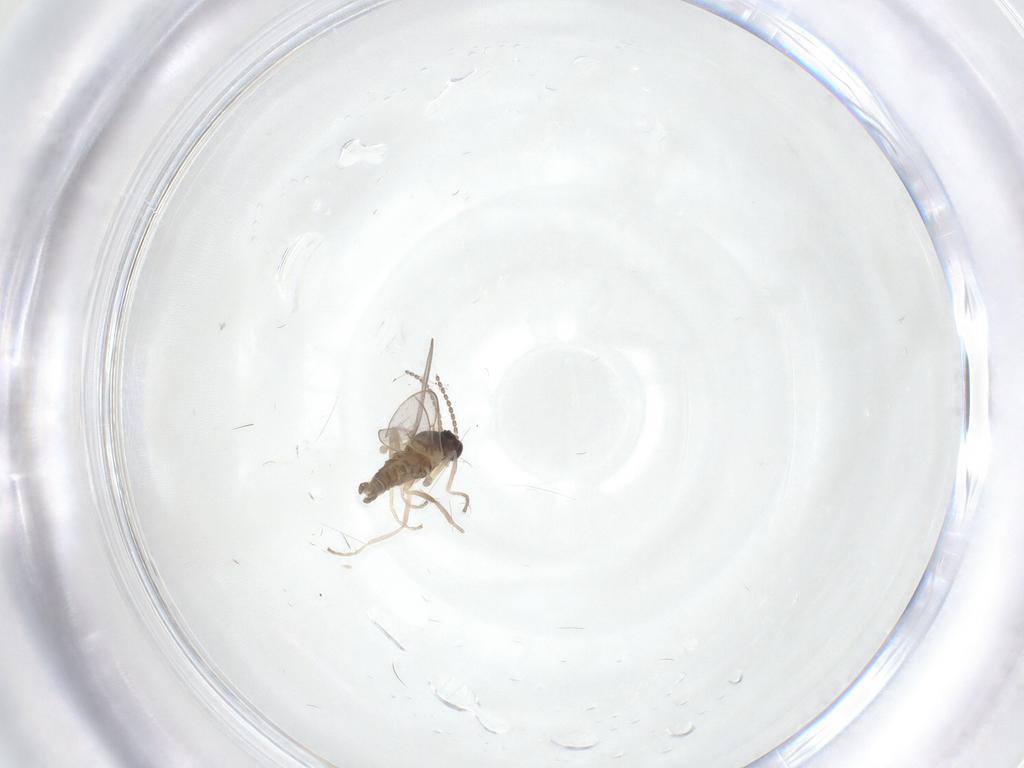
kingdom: Animalia
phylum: Arthropoda
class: Insecta
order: Diptera
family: Cecidomyiidae
